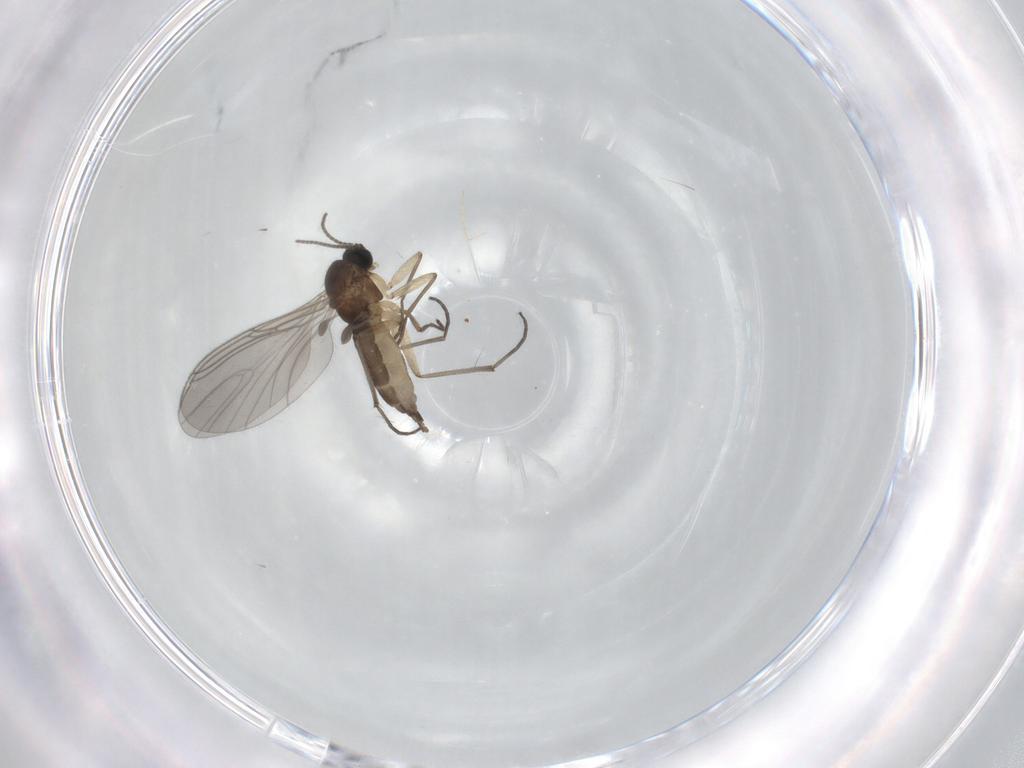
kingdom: Animalia
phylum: Arthropoda
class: Insecta
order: Diptera
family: Sciaridae
